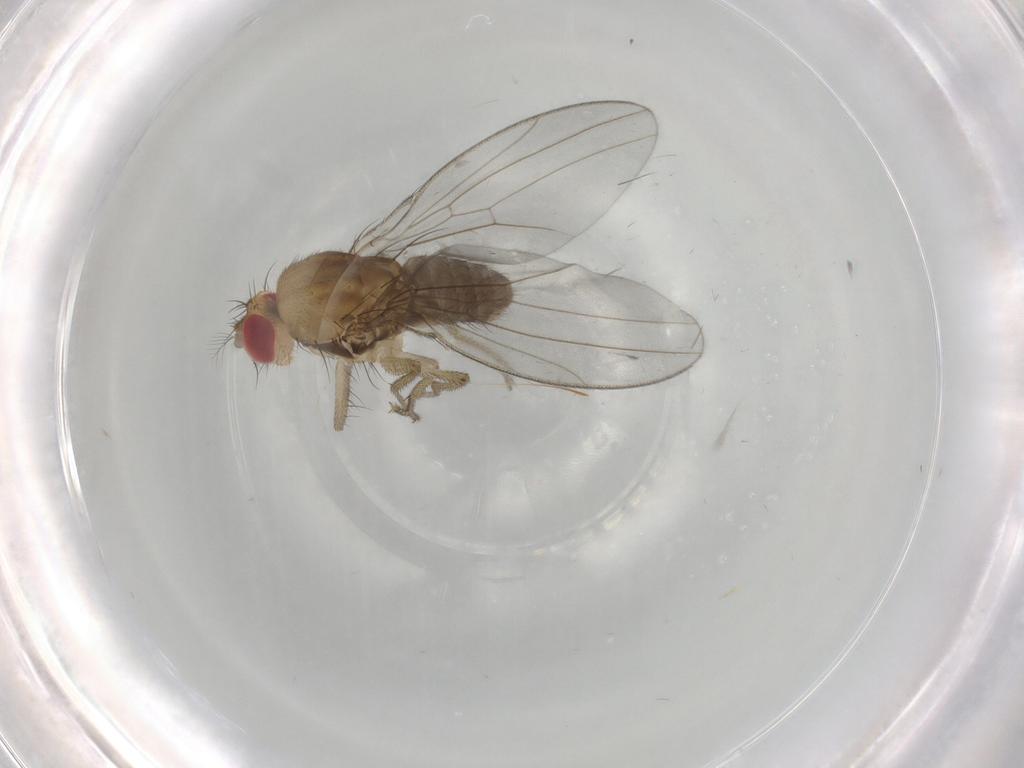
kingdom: Animalia
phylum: Arthropoda
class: Insecta
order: Diptera
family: Drosophilidae
